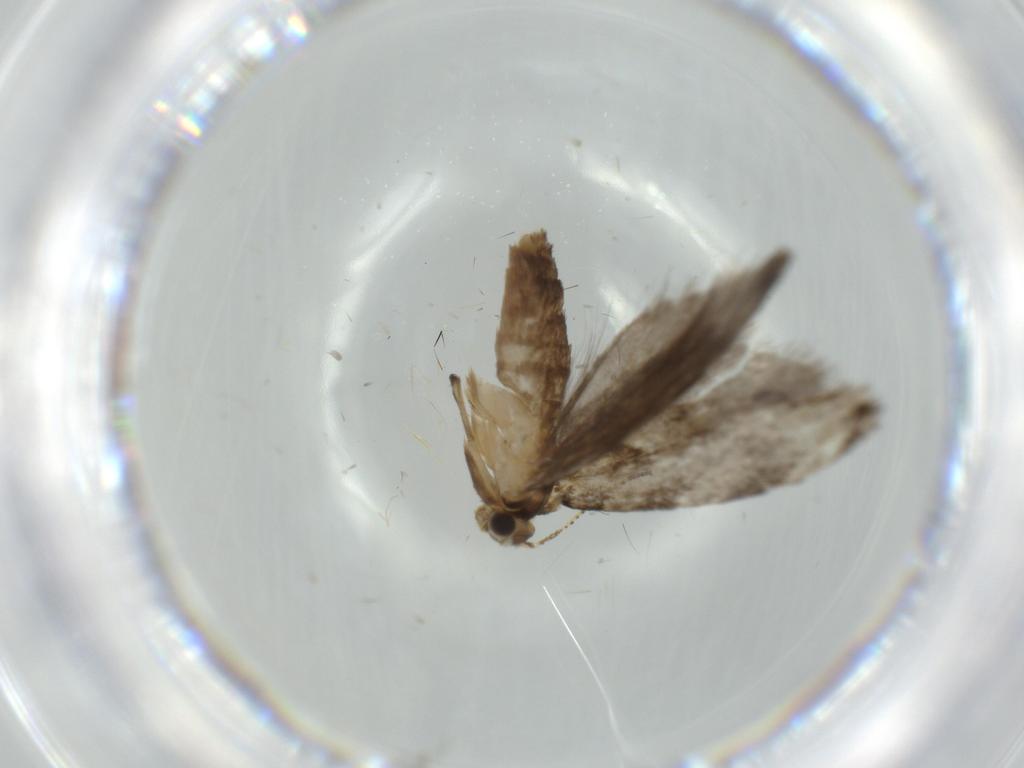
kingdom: Animalia
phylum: Arthropoda
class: Insecta
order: Lepidoptera
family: Tineidae
